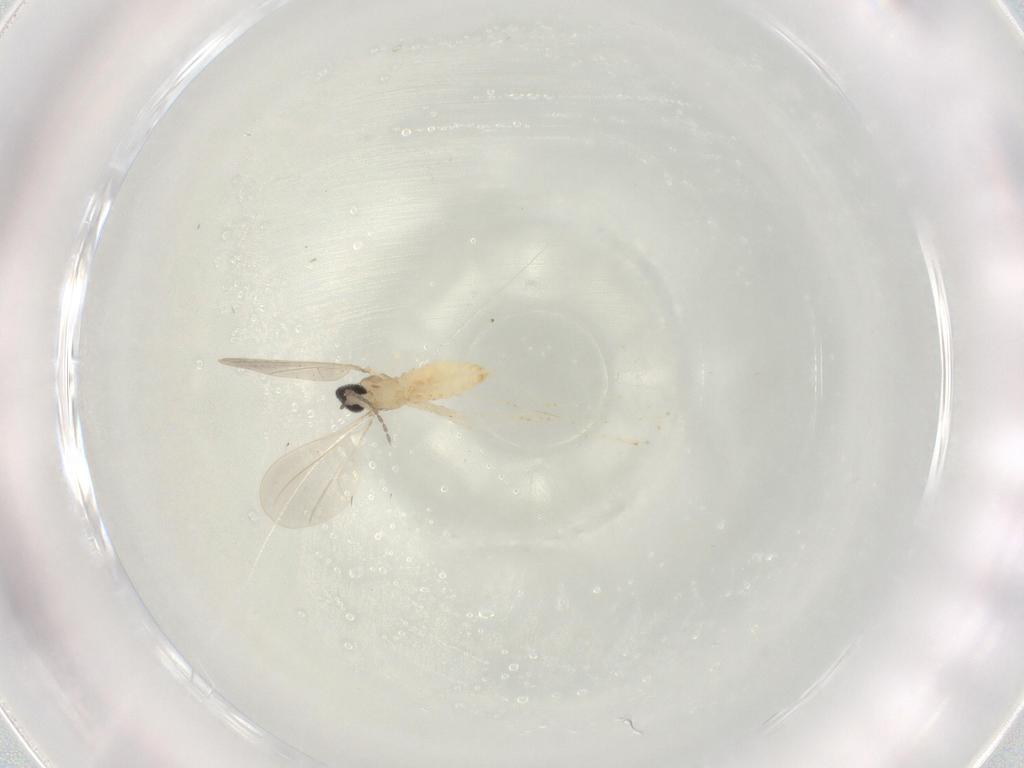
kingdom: Animalia
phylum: Arthropoda
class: Insecta
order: Diptera
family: Cecidomyiidae
